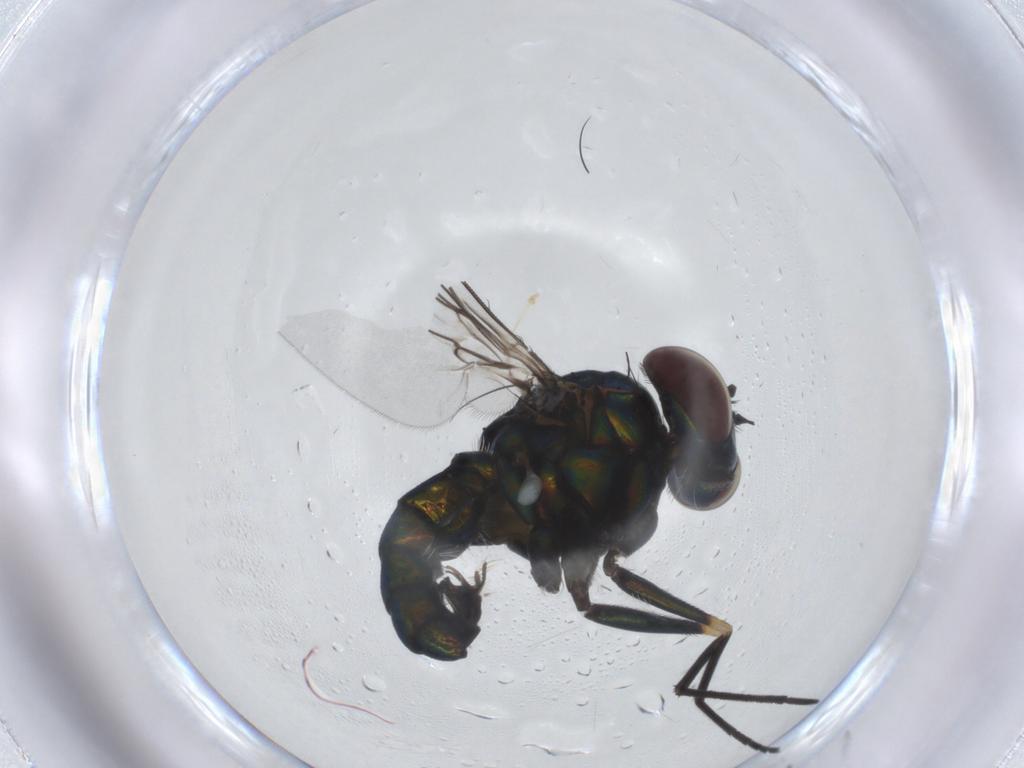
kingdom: Animalia
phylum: Arthropoda
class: Insecta
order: Diptera
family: Dolichopodidae
